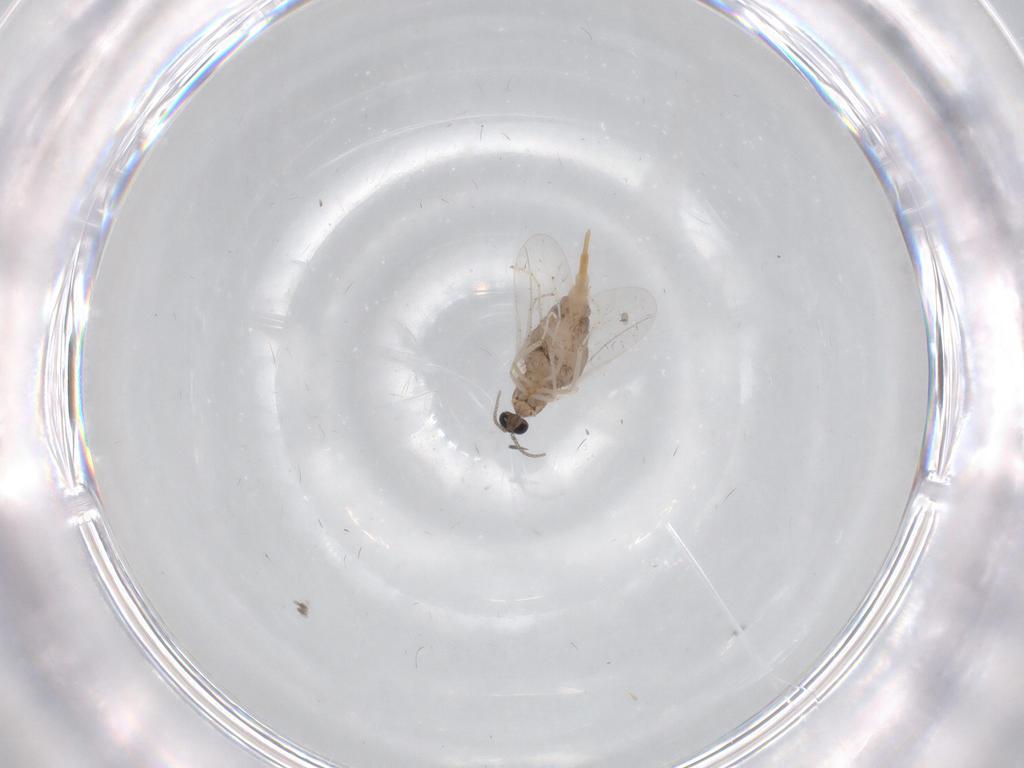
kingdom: Animalia
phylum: Arthropoda
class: Insecta
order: Diptera
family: Cecidomyiidae
